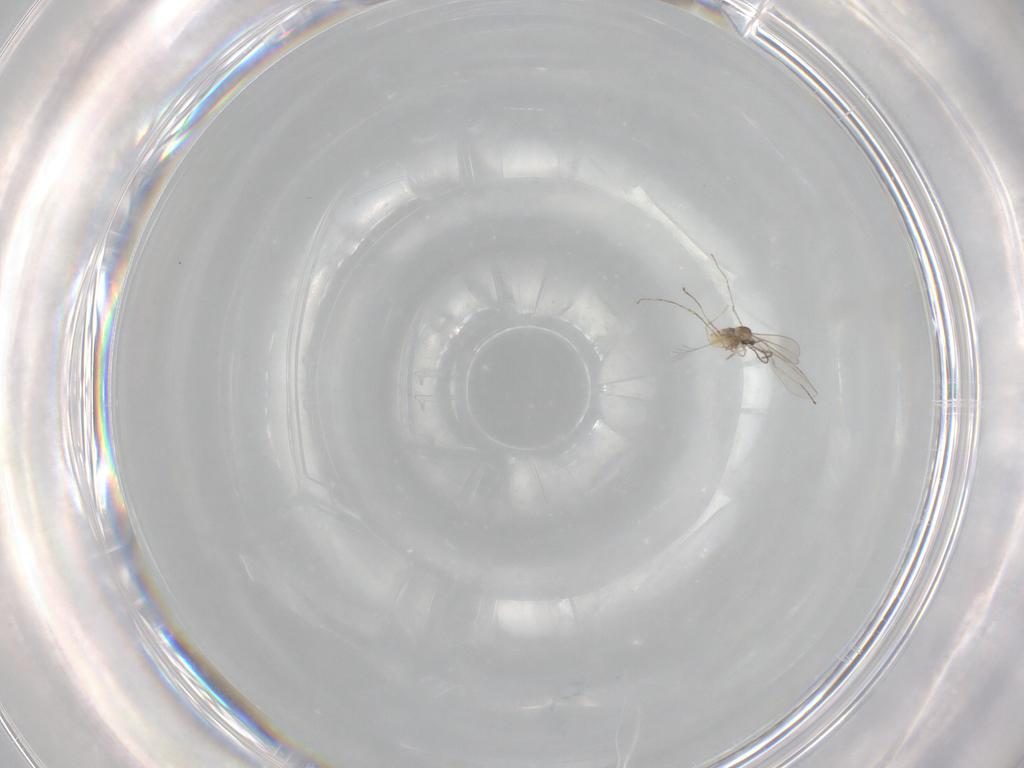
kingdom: Animalia
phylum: Arthropoda
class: Insecta
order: Diptera
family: Cecidomyiidae
